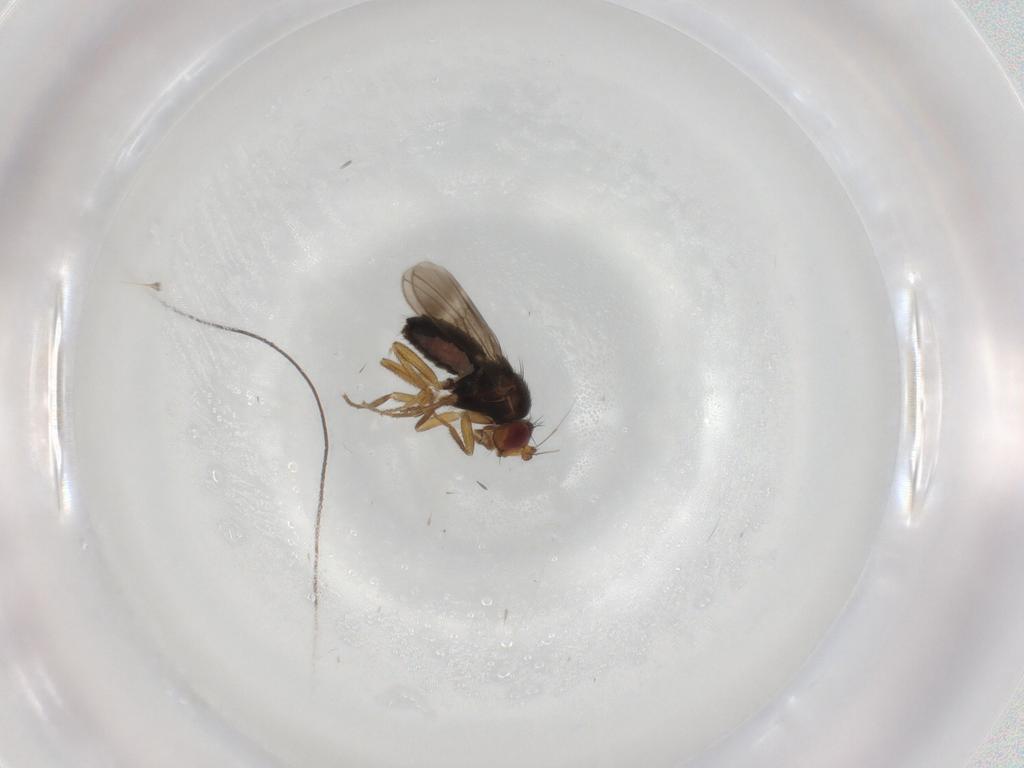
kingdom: Animalia
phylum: Arthropoda
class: Insecta
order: Diptera
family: Sphaeroceridae
